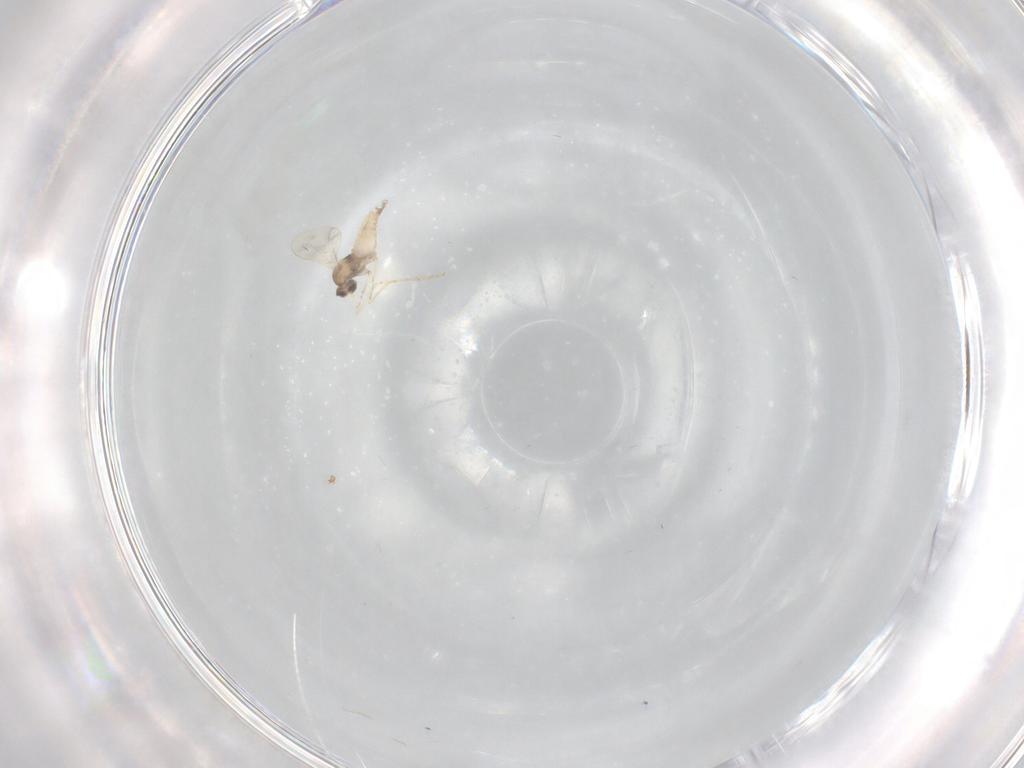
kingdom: Animalia
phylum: Arthropoda
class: Insecta
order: Diptera
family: Cecidomyiidae
